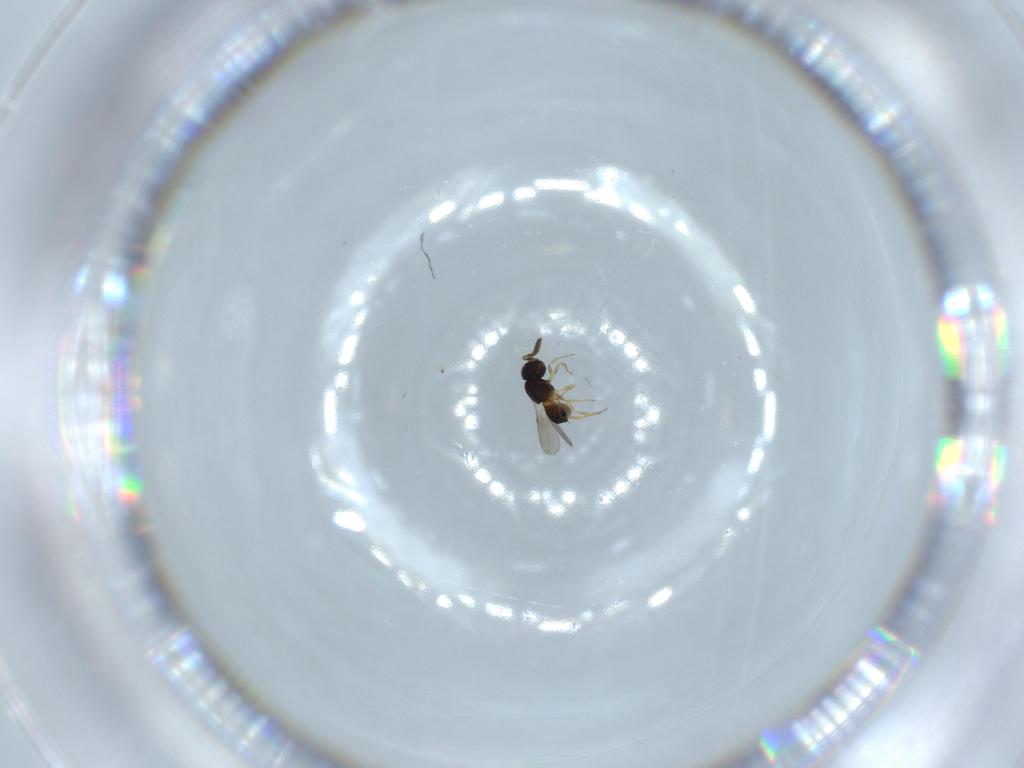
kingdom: Animalia
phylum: Arthropoda
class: Insecta
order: Hymenoptera
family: Scelionidae
